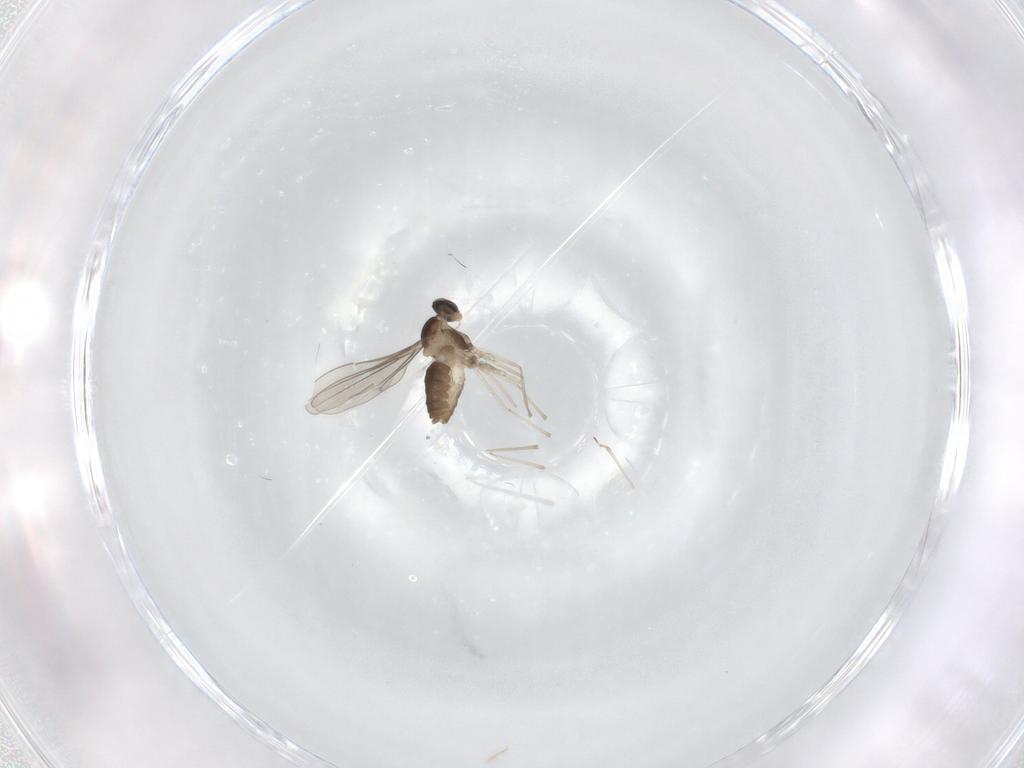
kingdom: Animalia
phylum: Arthropoda
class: Insecta
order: Diptera
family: Cecidomyiidae
